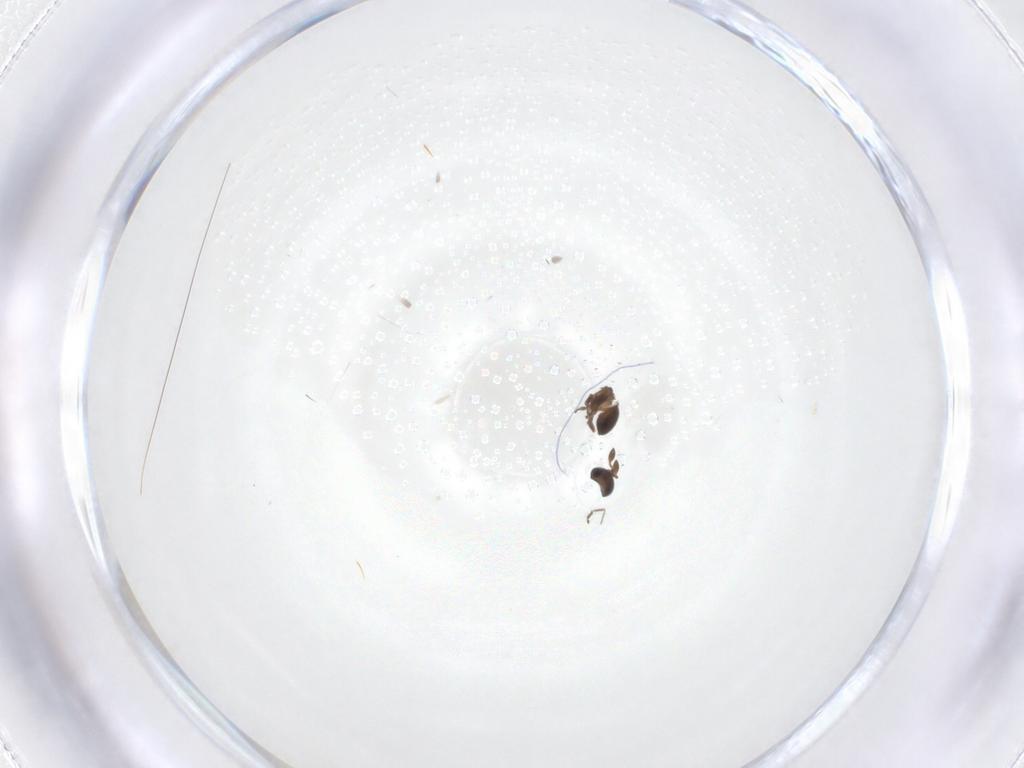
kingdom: Animalia
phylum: Arthropoda
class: Insecta
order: Hymenoptera
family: Scelionidae
